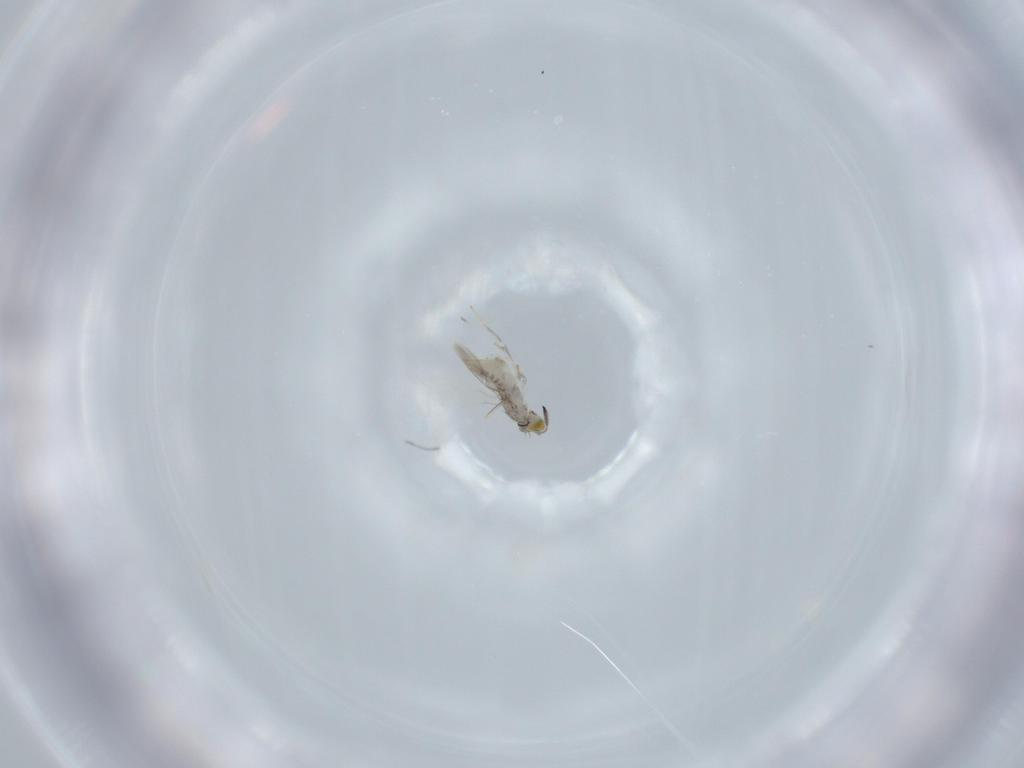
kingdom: Animalia
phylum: Arthropoda
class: Insecta
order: Hymenoptera
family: Aphelinidae
